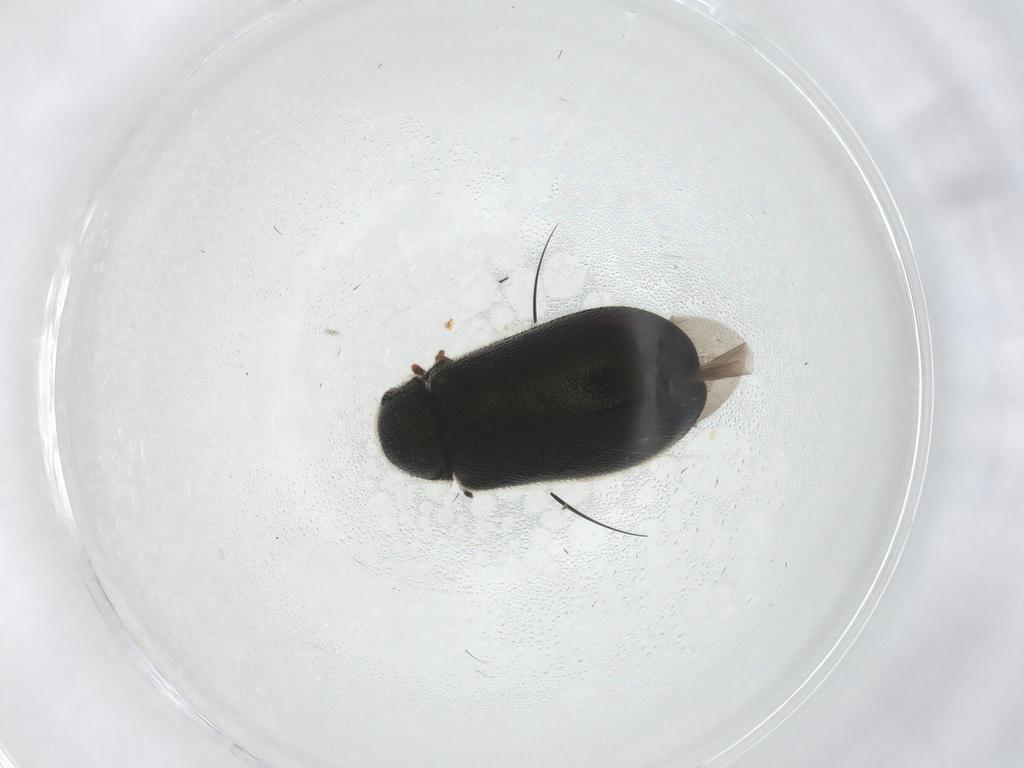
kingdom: Animalia
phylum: Arthropoda
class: Insecta
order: Coleoptera
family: Melyridae
